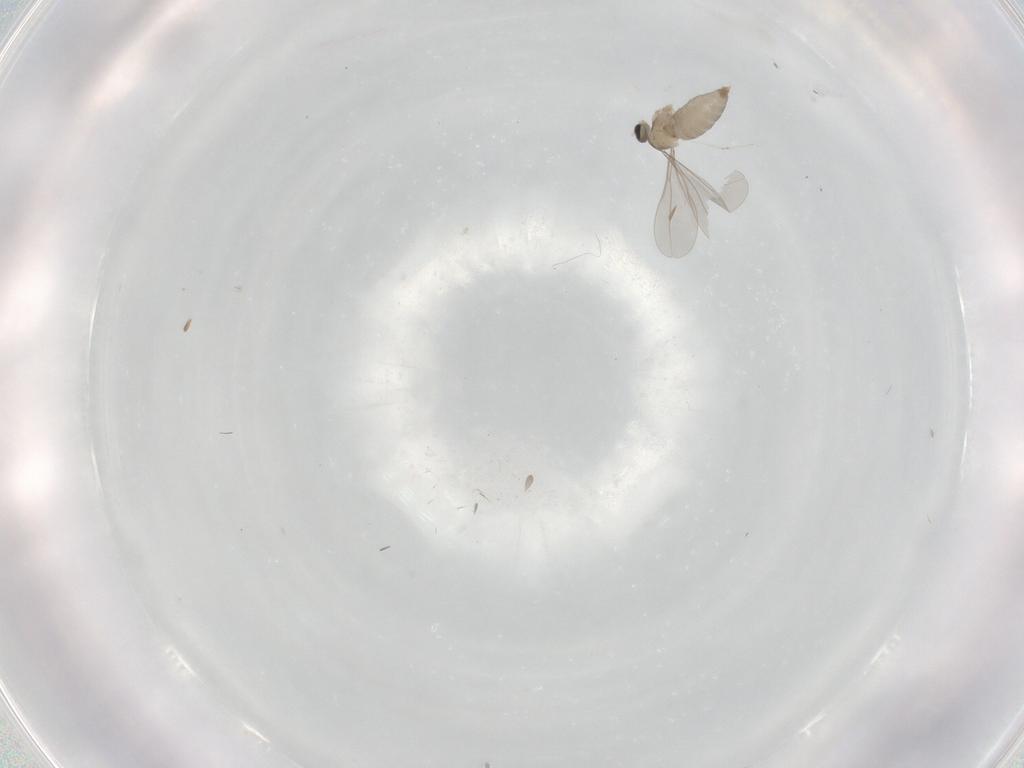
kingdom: Animalia
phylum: Arthropoda
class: Insecta
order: Diptera
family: Cecidomyiidae
